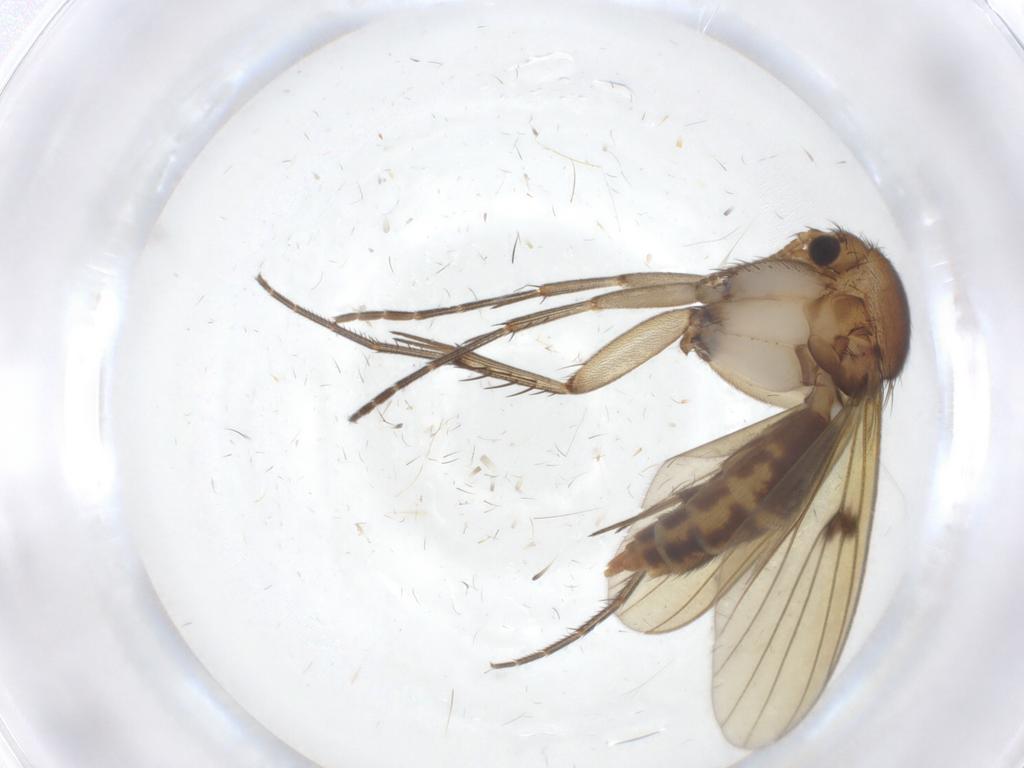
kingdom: Animalia
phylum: Arthropoda
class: Insecta
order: Diptera
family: Mycetophilidae
